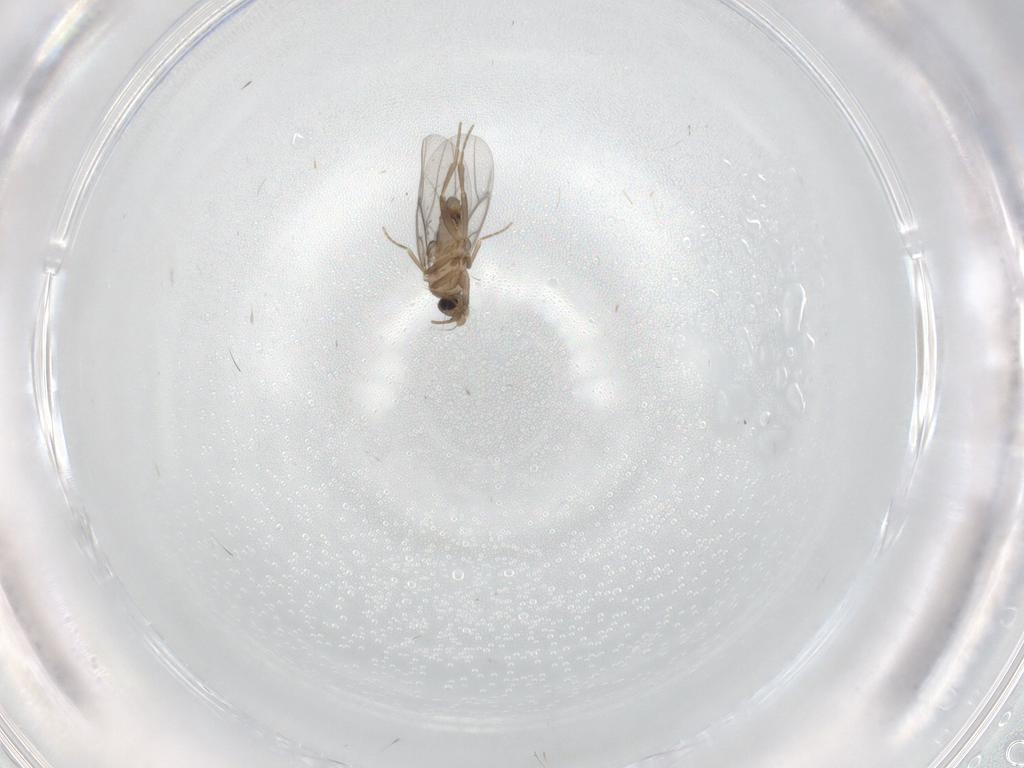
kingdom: Animalia
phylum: Arthropoda
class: Insecta
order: Diptera
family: Cecidomyiidae
